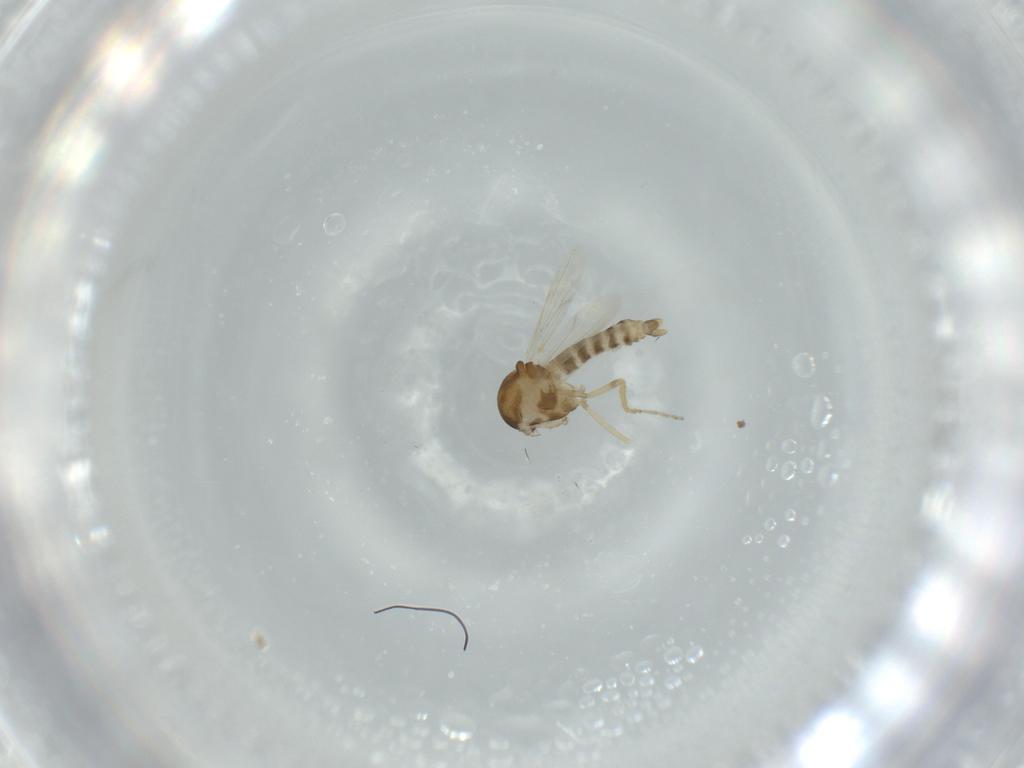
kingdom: Animalia
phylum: Arthropoda
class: Insecta
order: Diptera
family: Ceratopogonidae
